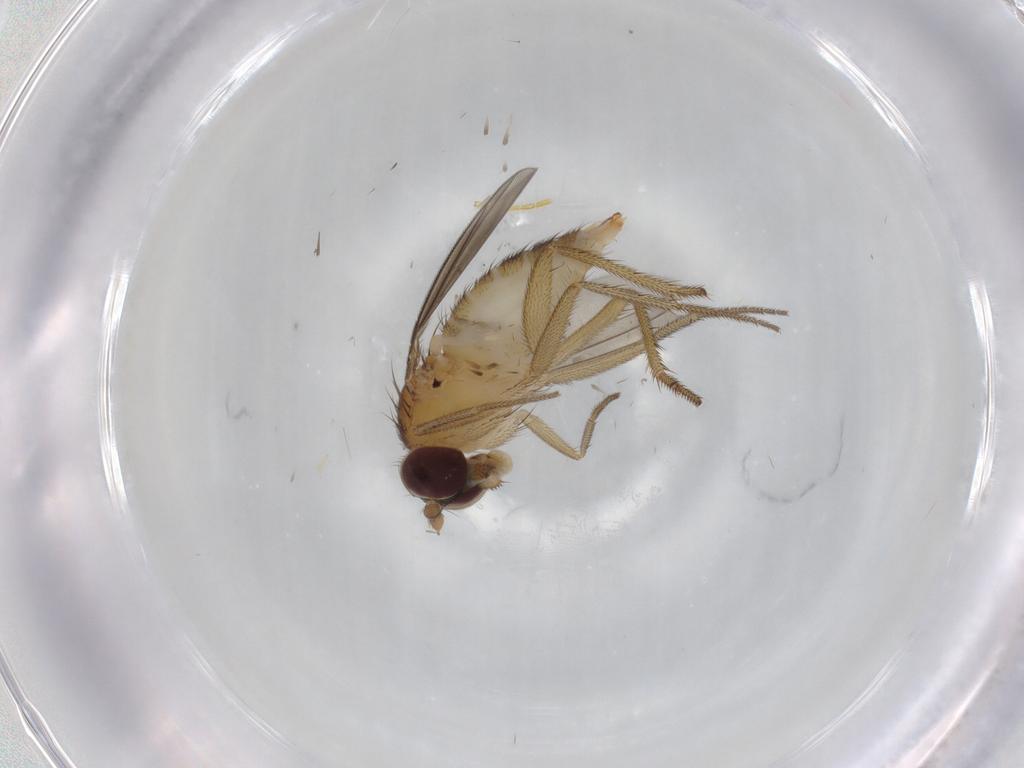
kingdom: Animalia
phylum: Arthropoda
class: Insecta
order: Diptera
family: Dolichopodidae
